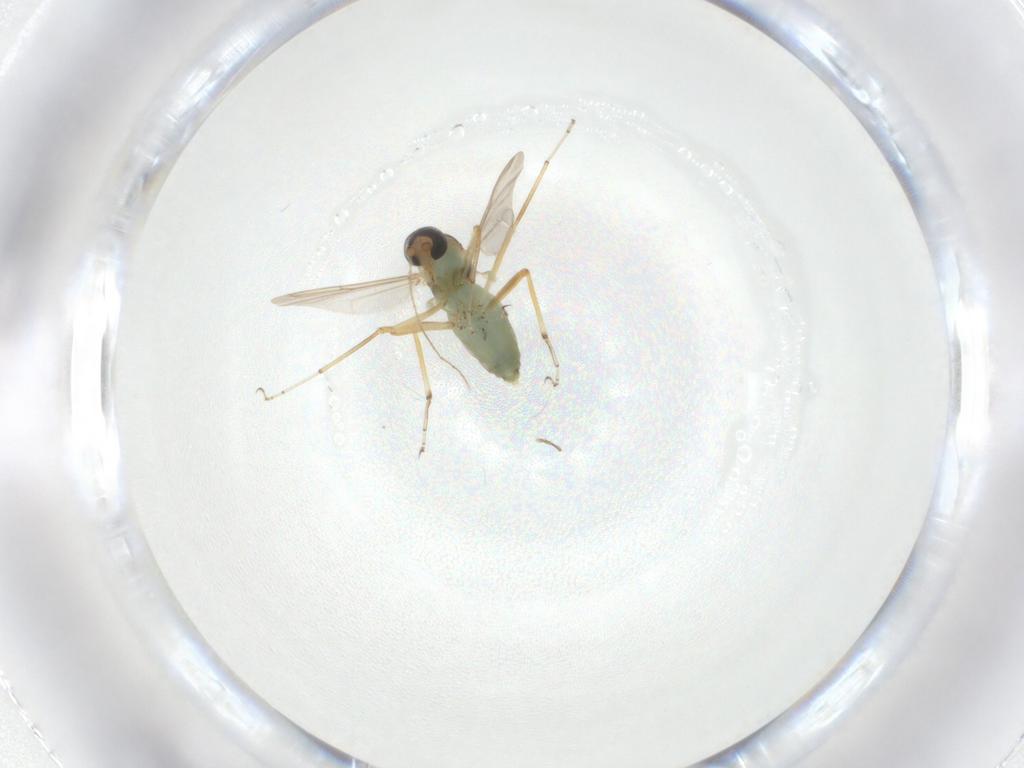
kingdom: Animalia
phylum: Arthropoda
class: Insecta
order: Diptera
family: Ceratopogonidae
